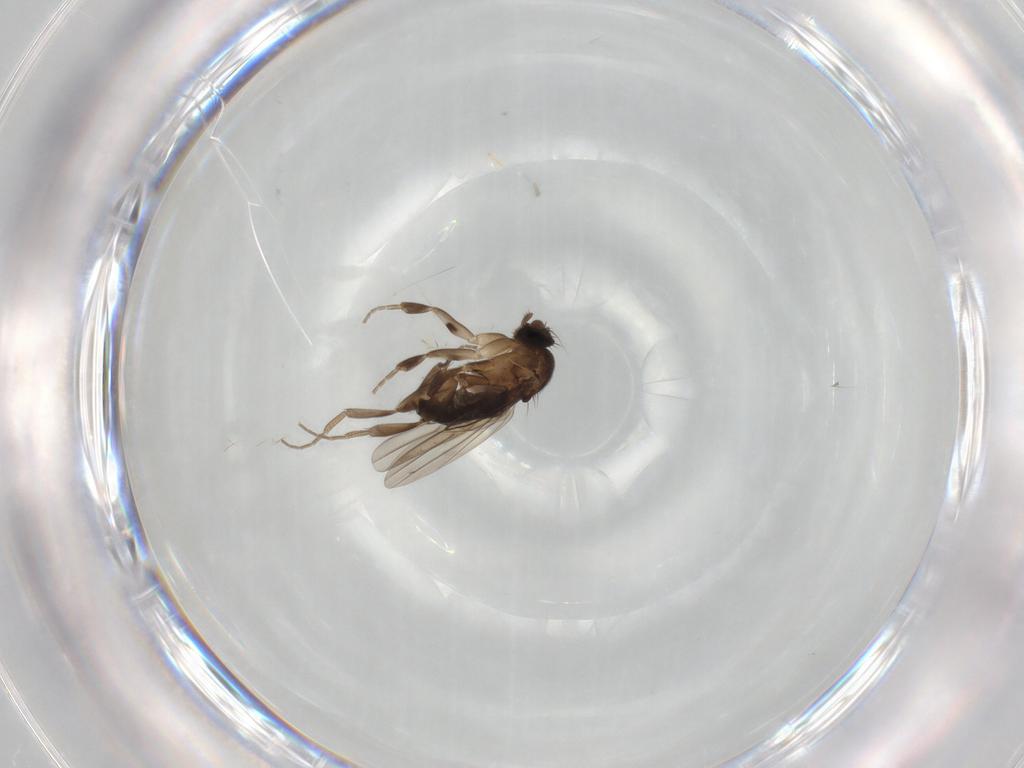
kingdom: Animalia
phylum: Arthropoda
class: Insecta
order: Diptera
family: Phoridae
